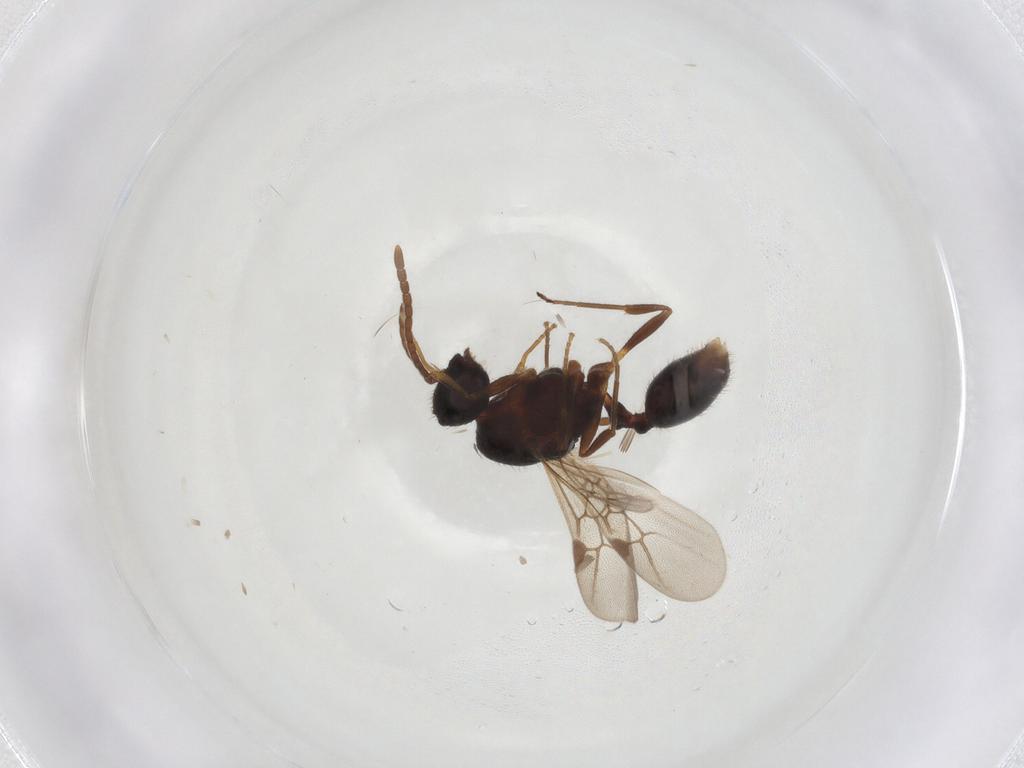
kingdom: Animalia
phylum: Arthropoda
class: Insecta
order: Hymenoptera
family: Formicidae
